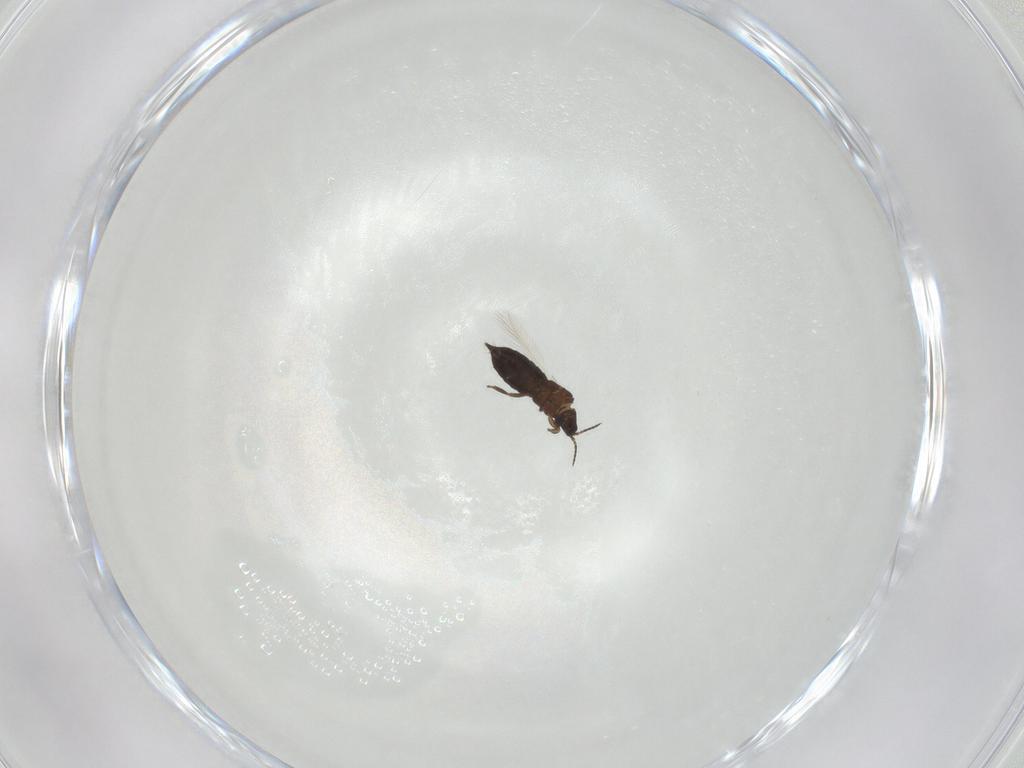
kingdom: Animalia
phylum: Arthropoda
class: Insecta
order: Thysanoptera
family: Heterothripidae
